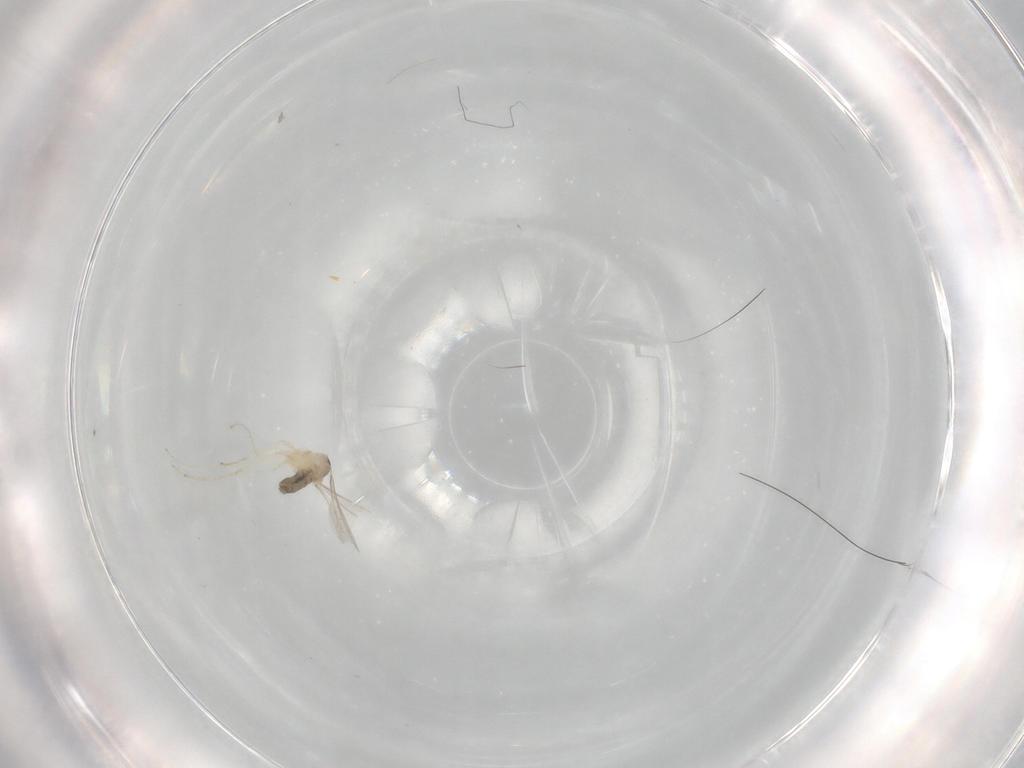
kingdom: Animalia
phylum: Arthropoda
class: Insecta
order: Diptera
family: Cecidomyiidae
